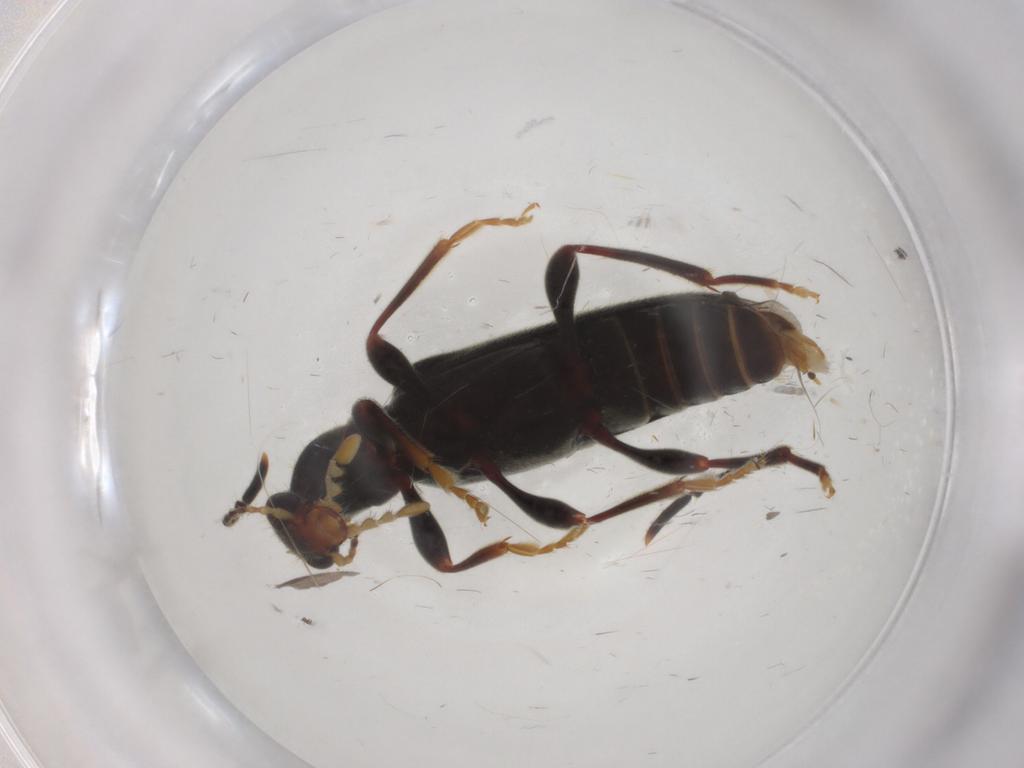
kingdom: Animalia
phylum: Arthropoda
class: Insecta
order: Coleoptera
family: Anthicidae
